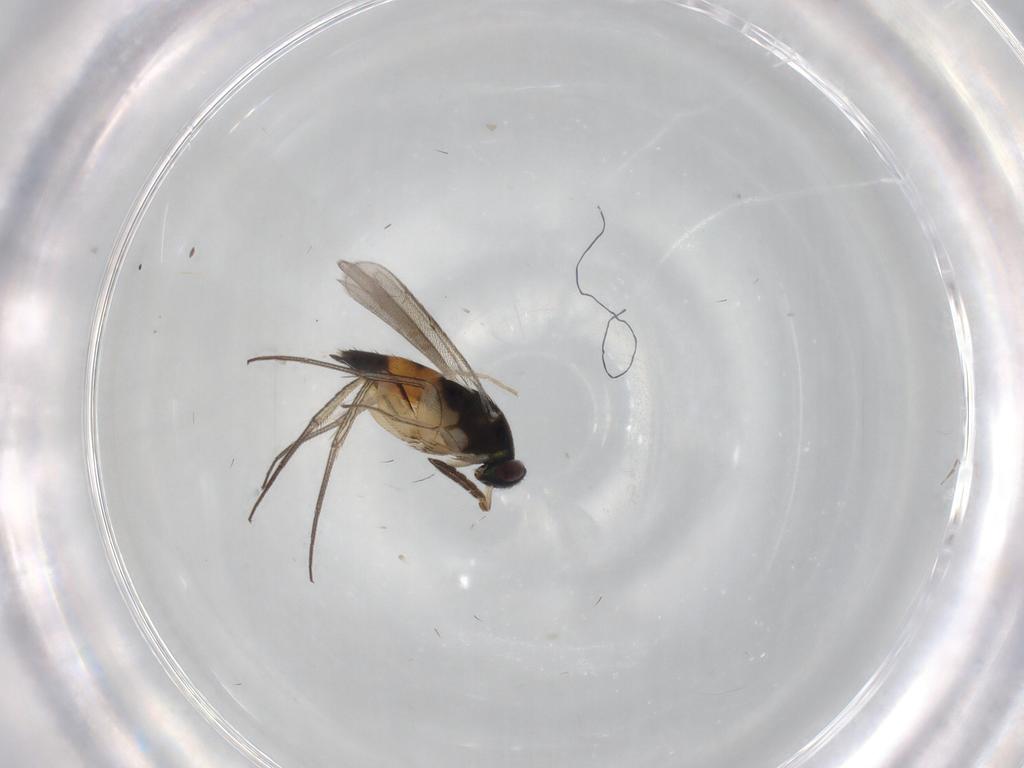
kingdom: Animalia
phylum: Arthropoda
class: Insecta
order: Diptera
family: Chironomidae
